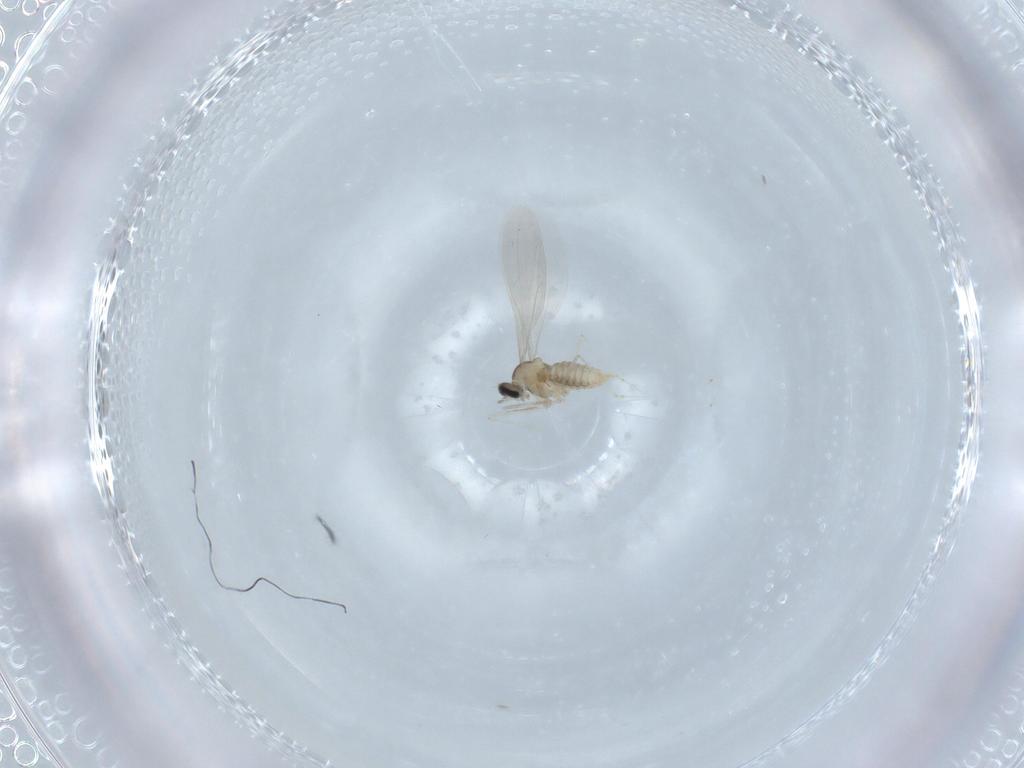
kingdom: Animalia
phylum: Arthropoda
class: Insecta
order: Diptera
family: Cecidomyiidae
